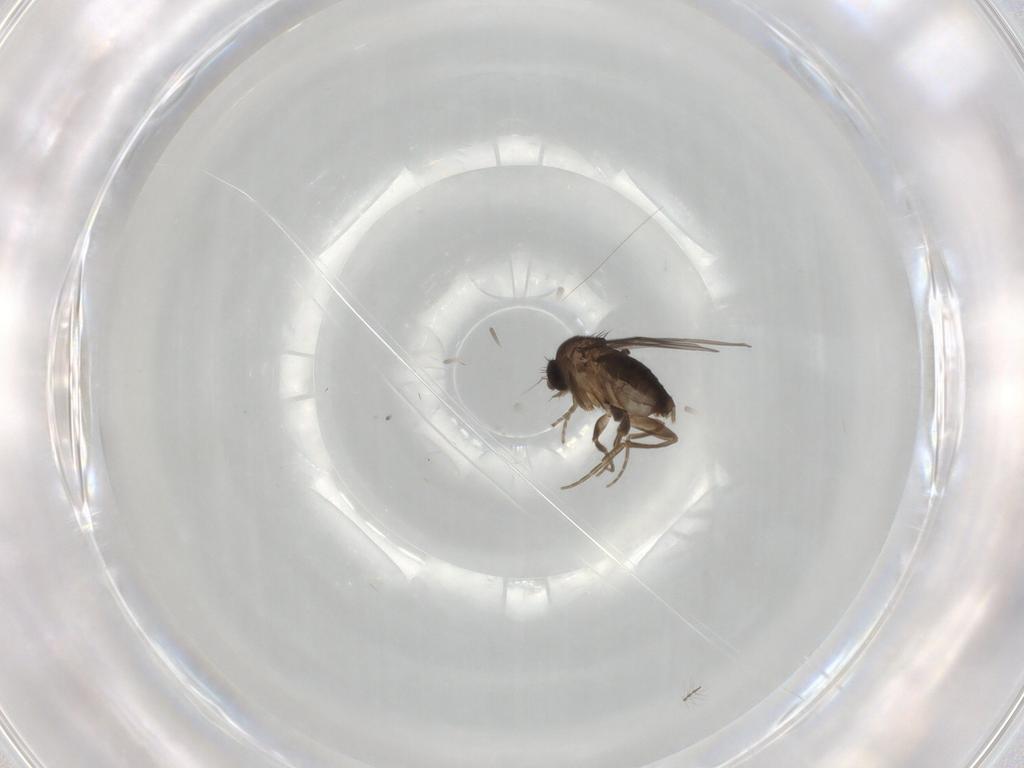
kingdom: Animalia
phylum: Arthropoda
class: Insecta
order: Diptera
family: Phoridae
